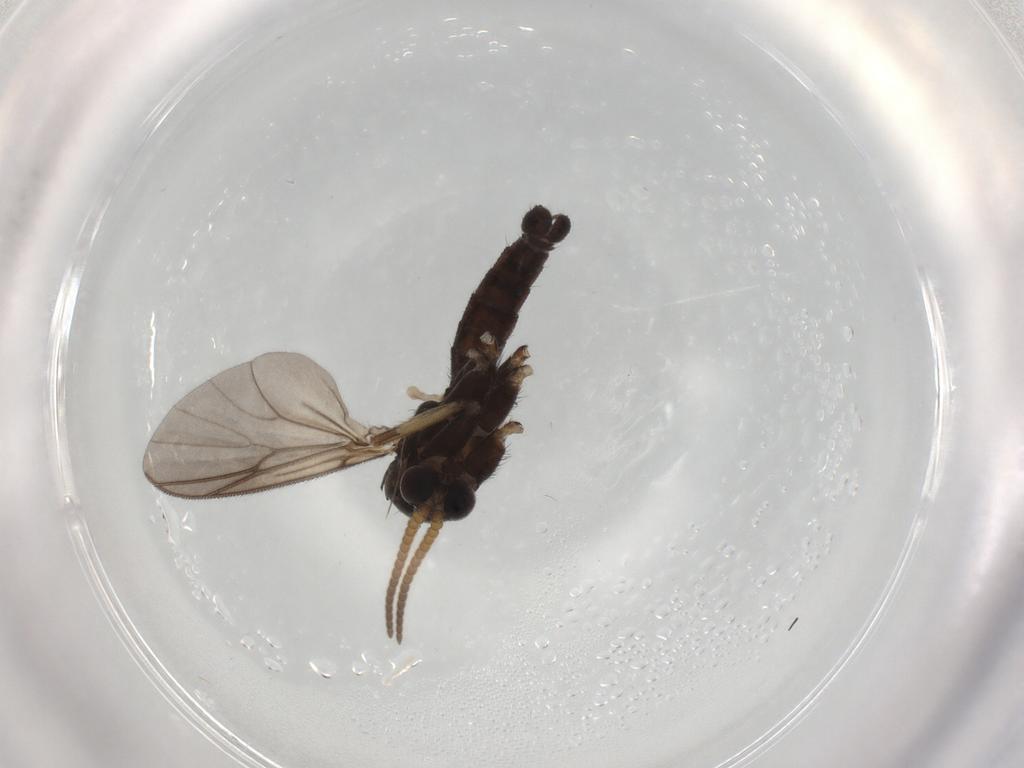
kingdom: Animalia
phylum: Arthropoda
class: Insecta
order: Diptera
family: Mycetophilidae
